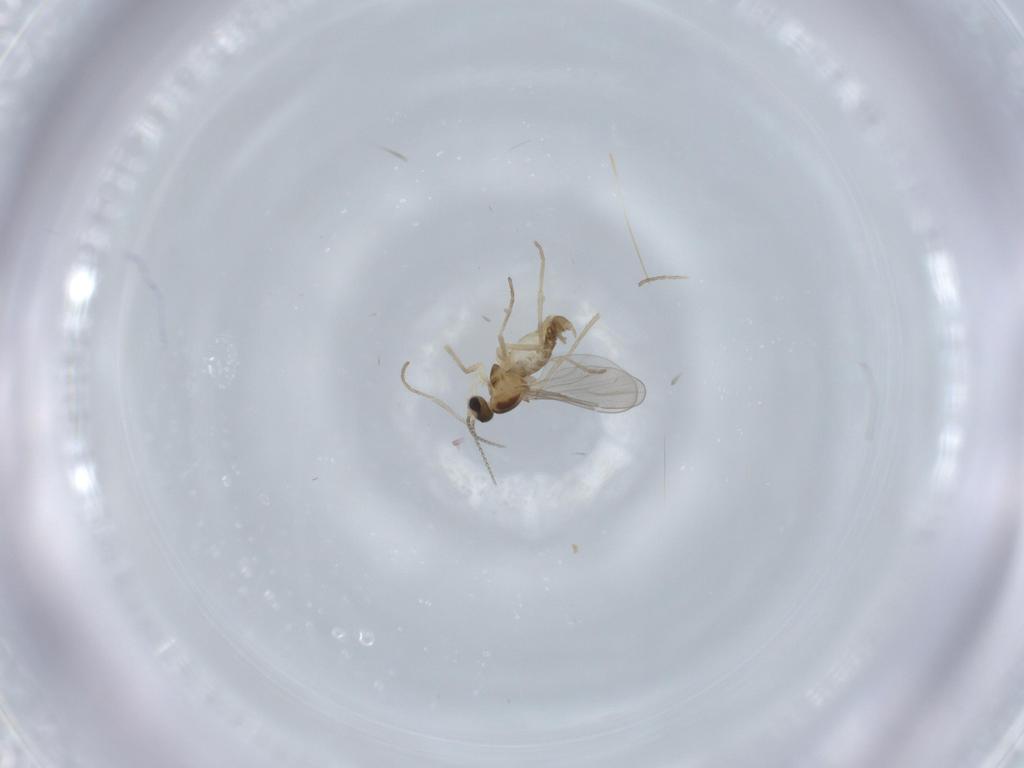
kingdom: Animalia
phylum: Arthropoda
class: Insecta
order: Diptera
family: Cecidomyiidae
